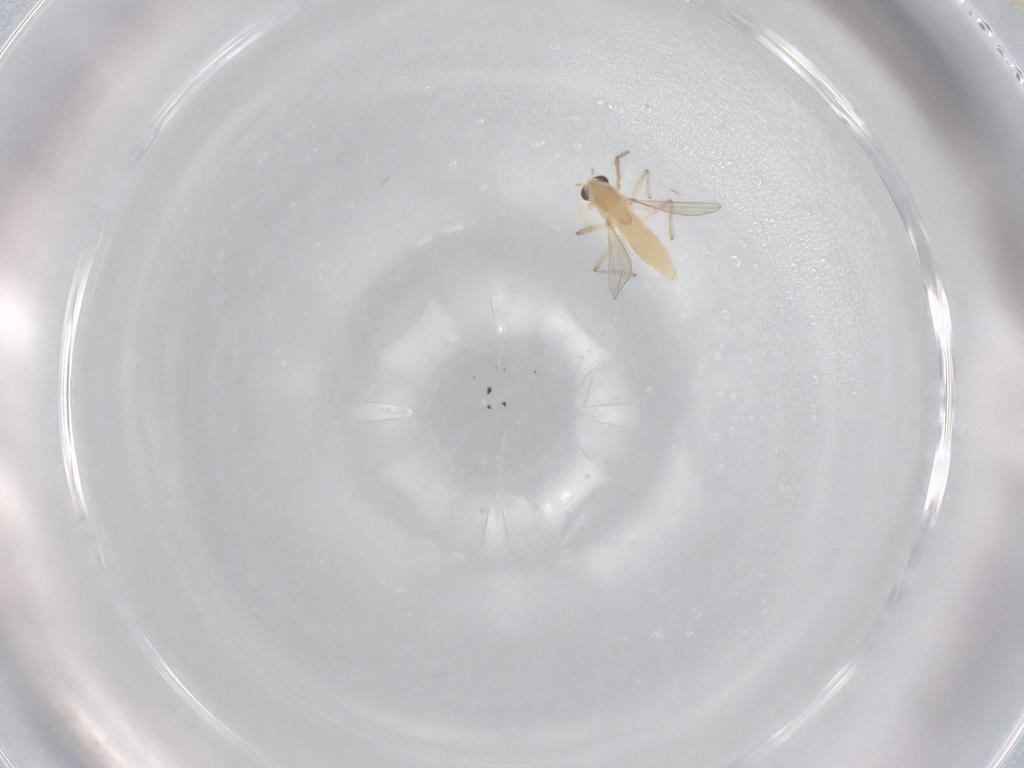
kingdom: Animalia
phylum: Arthropoda
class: Insecta
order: Diptera
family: Chironomidae
